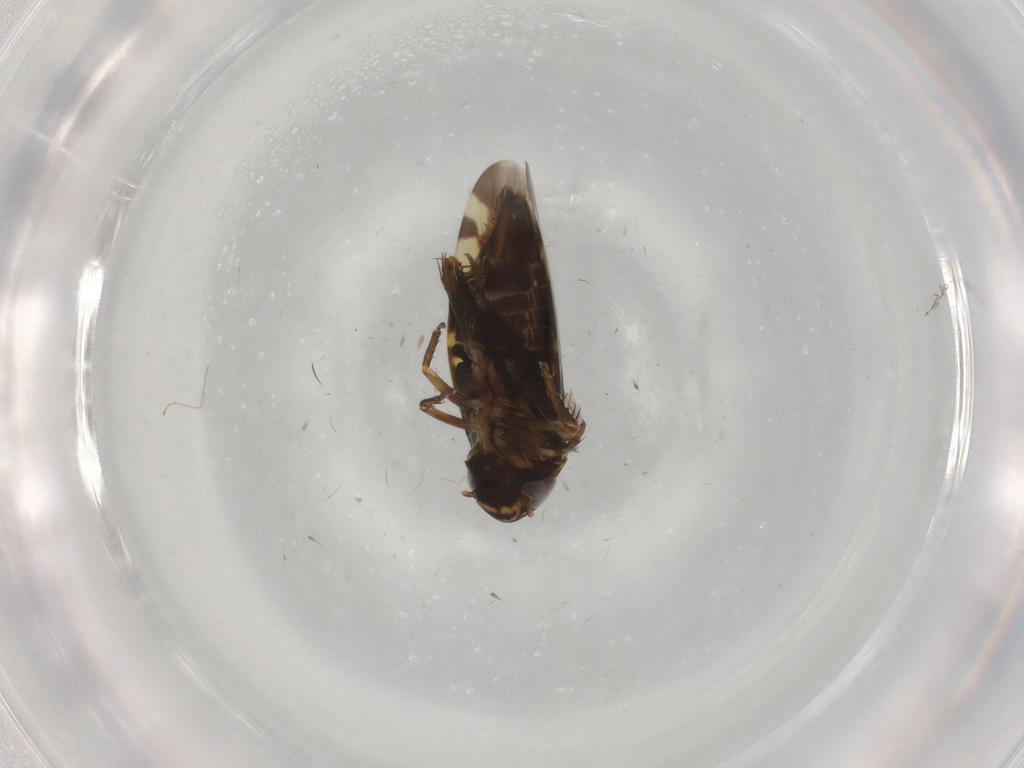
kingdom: Animalia
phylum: Arthropoda
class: Insecta
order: Hemiptera
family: Cicadellidae
